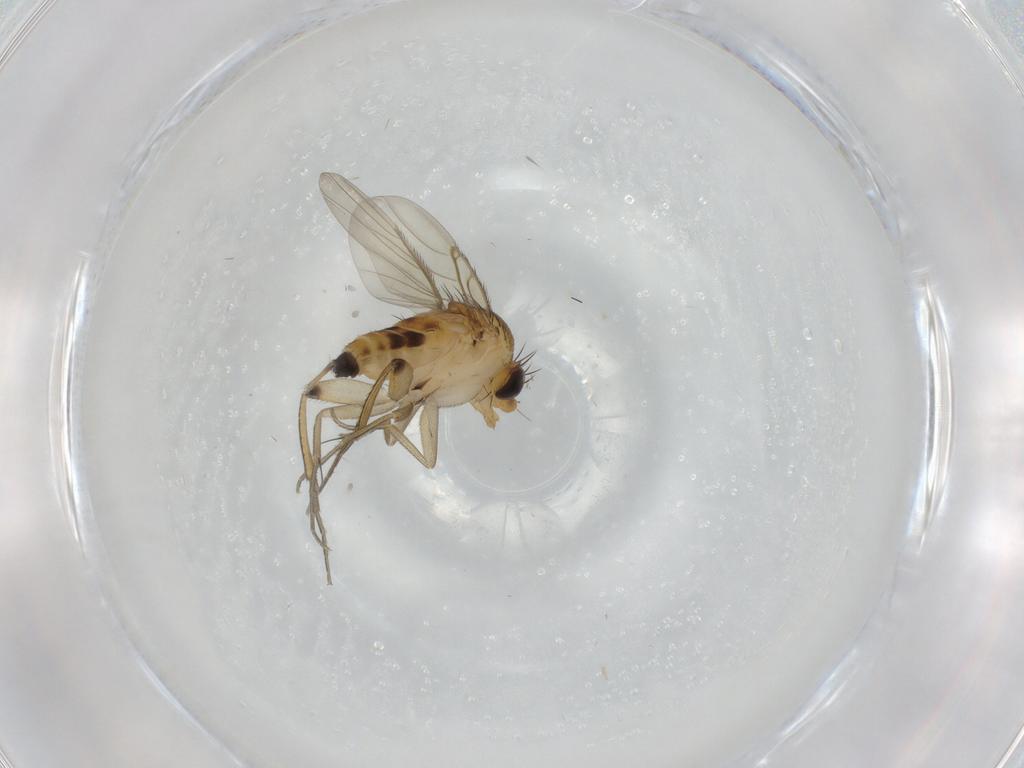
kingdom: Animalia
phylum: Arthropoda
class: Insecta
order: Diptera
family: Phoridae
